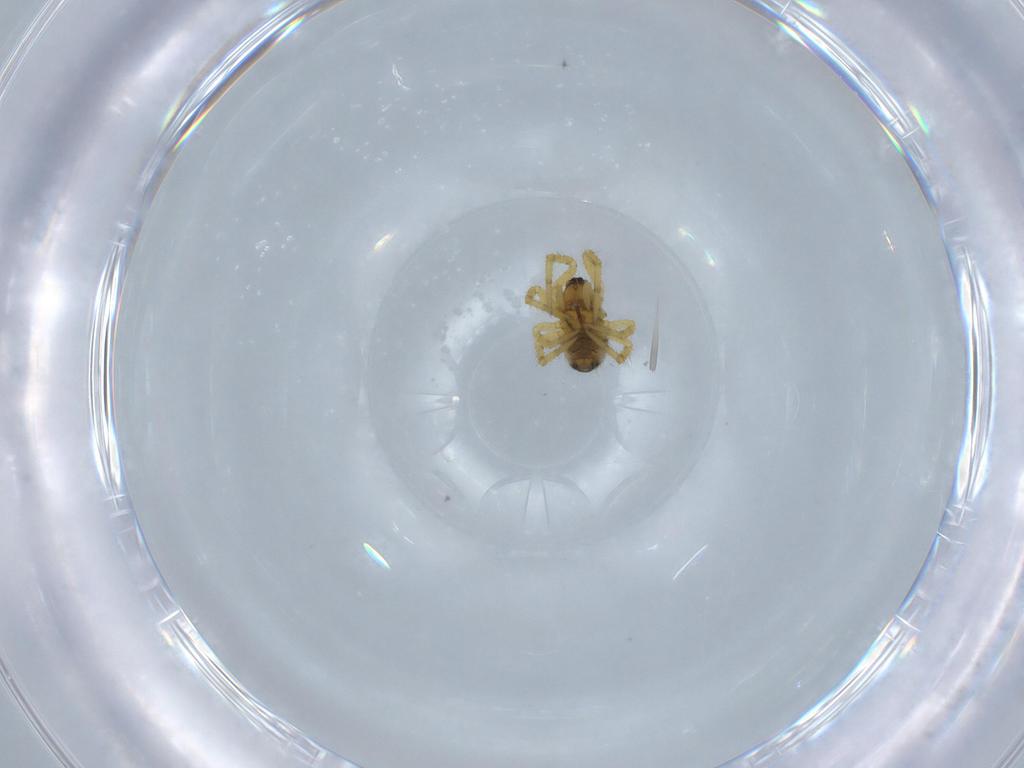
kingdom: Animalia
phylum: Arthropoda
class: Arachnida
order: Araneae
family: Theridiidae
